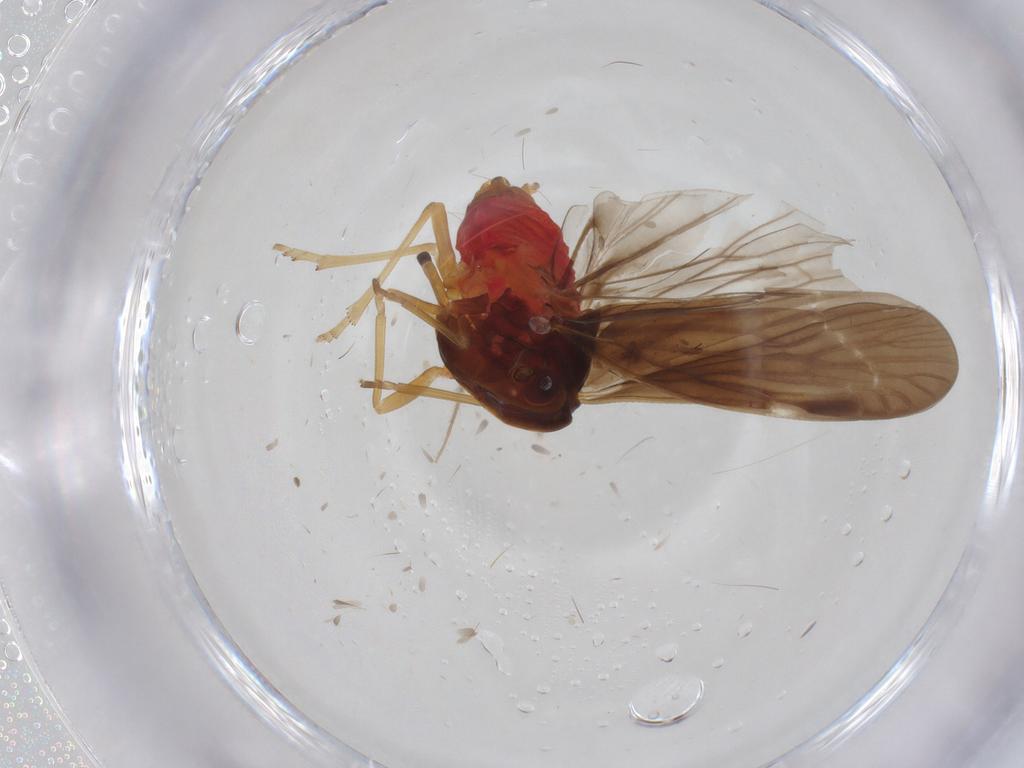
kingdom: Animalia
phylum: Arthropoda
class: Insecta
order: Hemiptera
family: Derbidae
